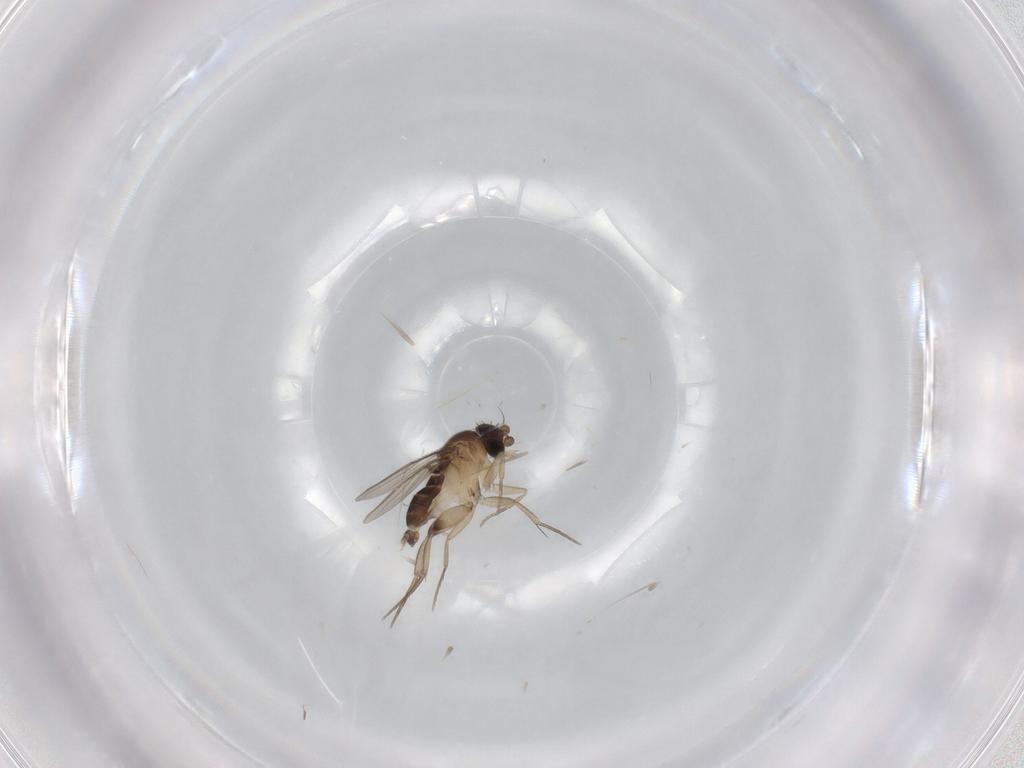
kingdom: Animalia
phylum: Arthropoda
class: Insecta
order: Diptera
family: Phoridae
